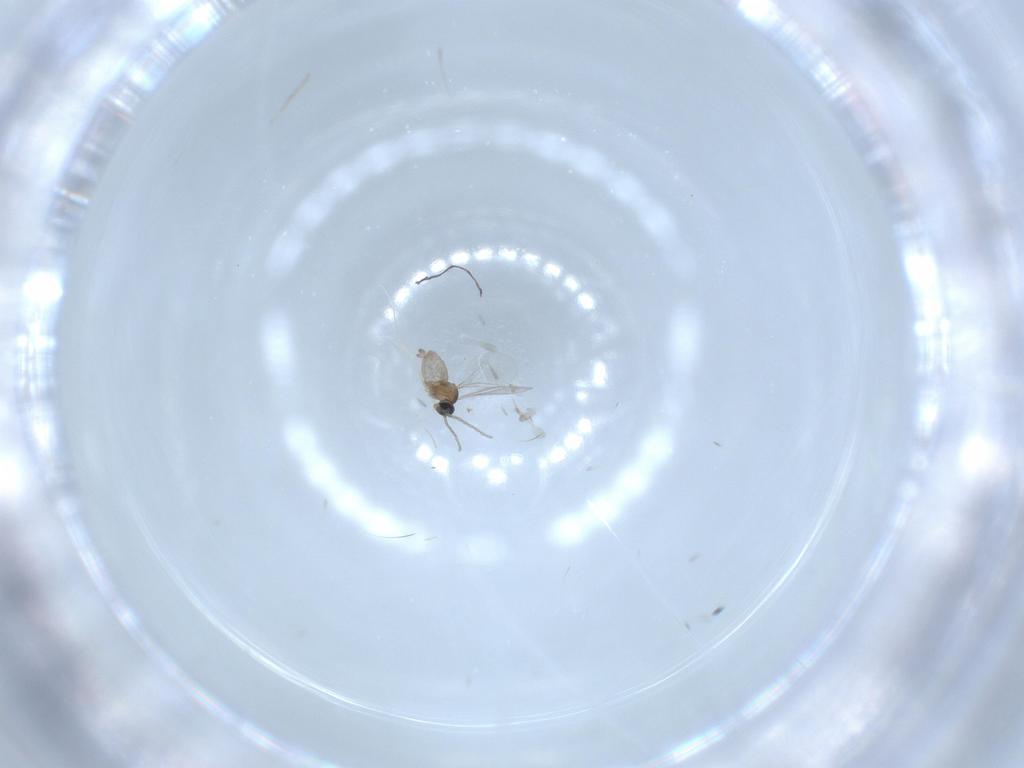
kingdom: Animalia
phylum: Arthropoda
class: Insecta
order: Diptera
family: Cecidomyiidae
